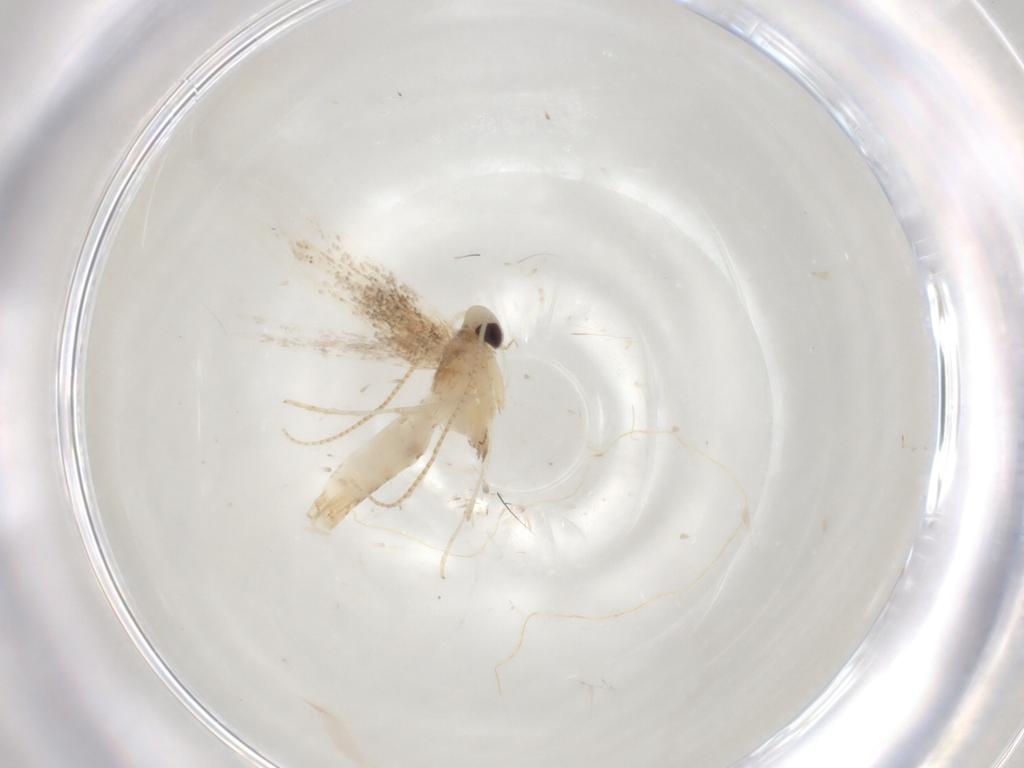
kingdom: Animalia
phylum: Arthropoda
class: Insecta
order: Lepidoptera
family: Gracillariidae
